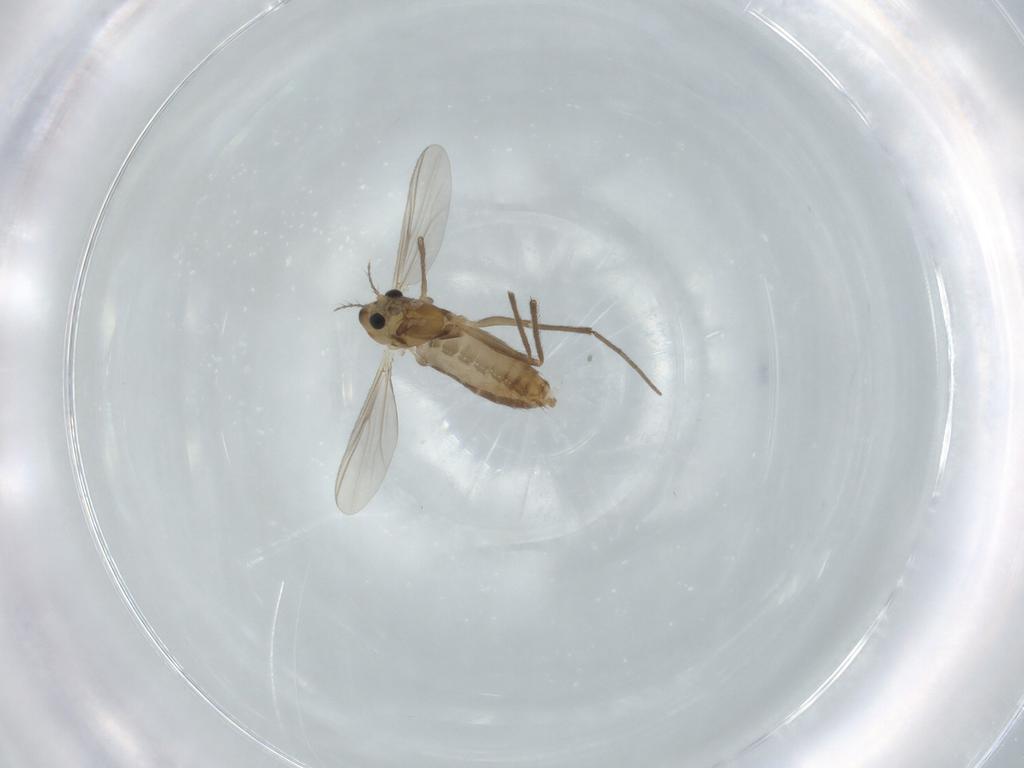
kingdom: Animalia
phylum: Arthropoda
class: Insecta
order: Diptera
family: Chironomidae
